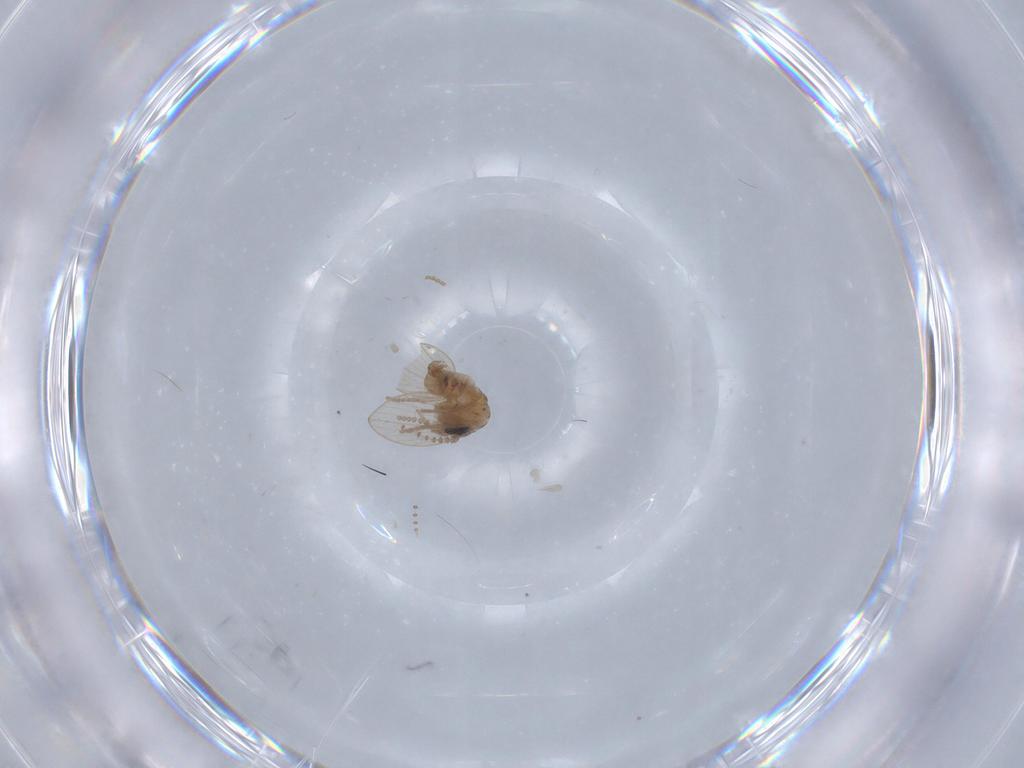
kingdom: Animalia
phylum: Arthropoda
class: Insecta
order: Diptera
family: Psychodidae
